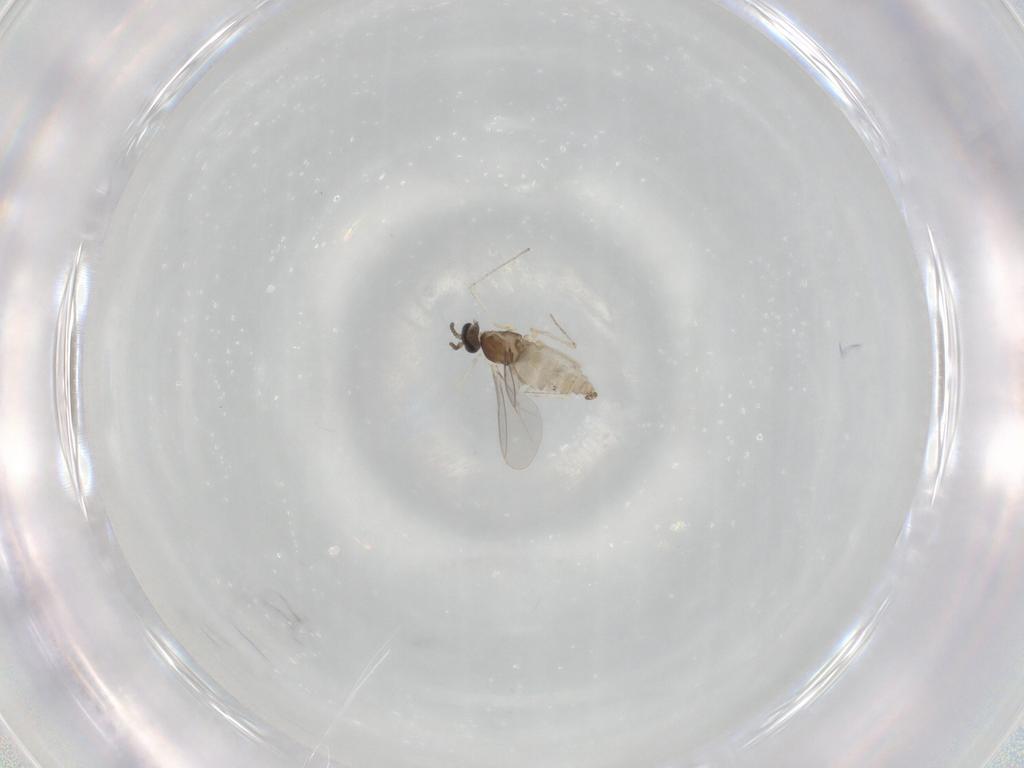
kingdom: Animalia
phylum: Arthropoda
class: Insecta
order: Diptera
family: Cecidomyiidae
